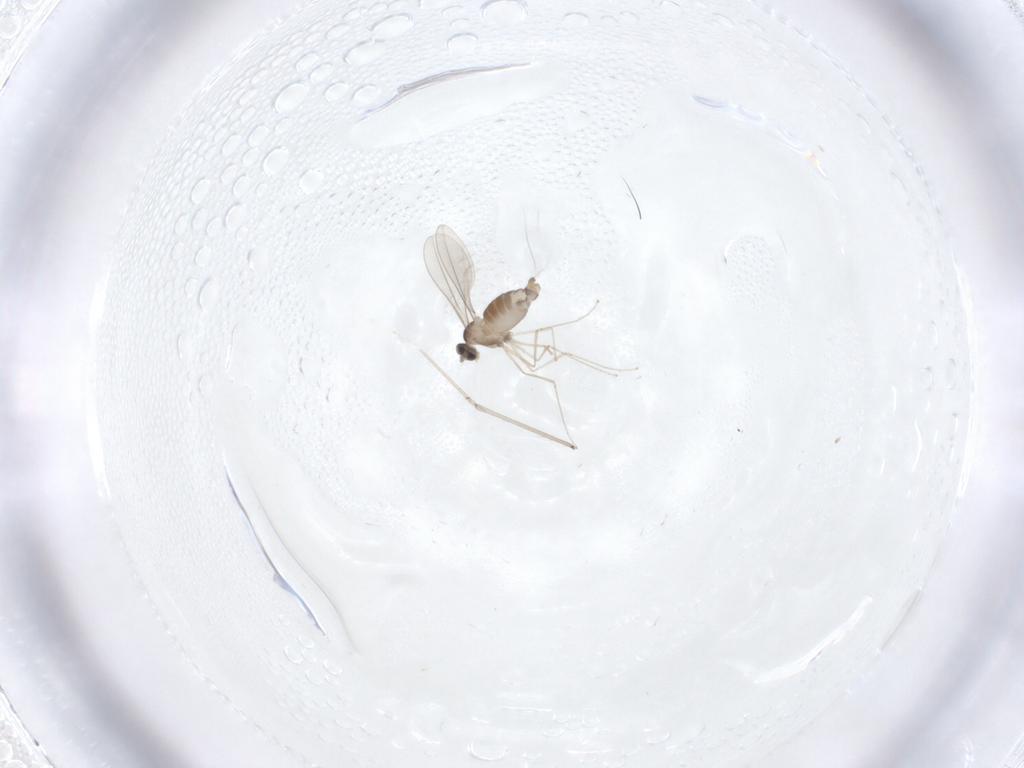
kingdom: Animalia
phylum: Arthropoda
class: Insecta
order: Diptera
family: Cecidomyiidae
